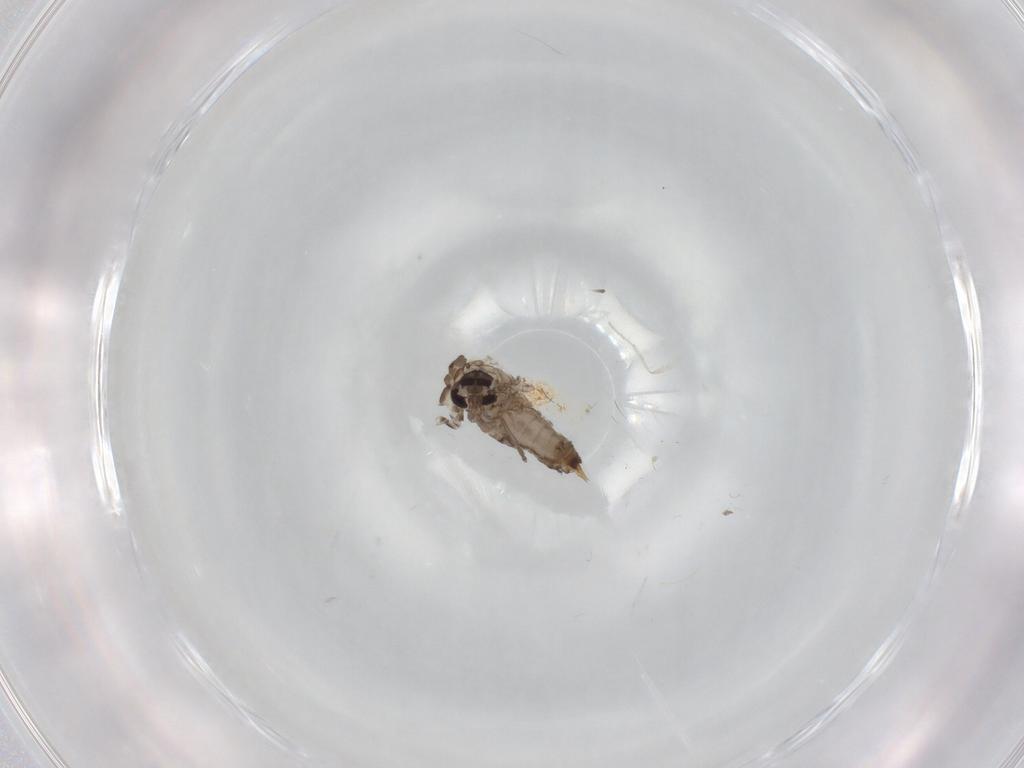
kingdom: Animalia
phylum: Arthropoda
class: Insecta
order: Diptera
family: Psychodidae
